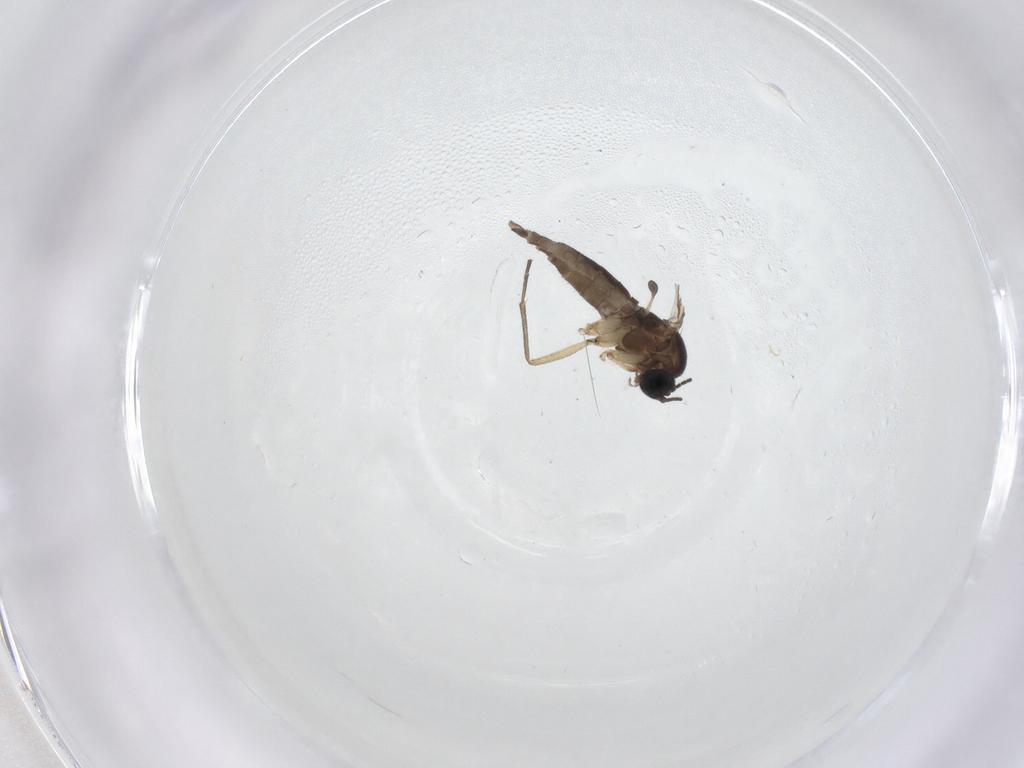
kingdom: Animalia
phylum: Arthropoda
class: Insecta
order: Diptera
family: Sciaridae
